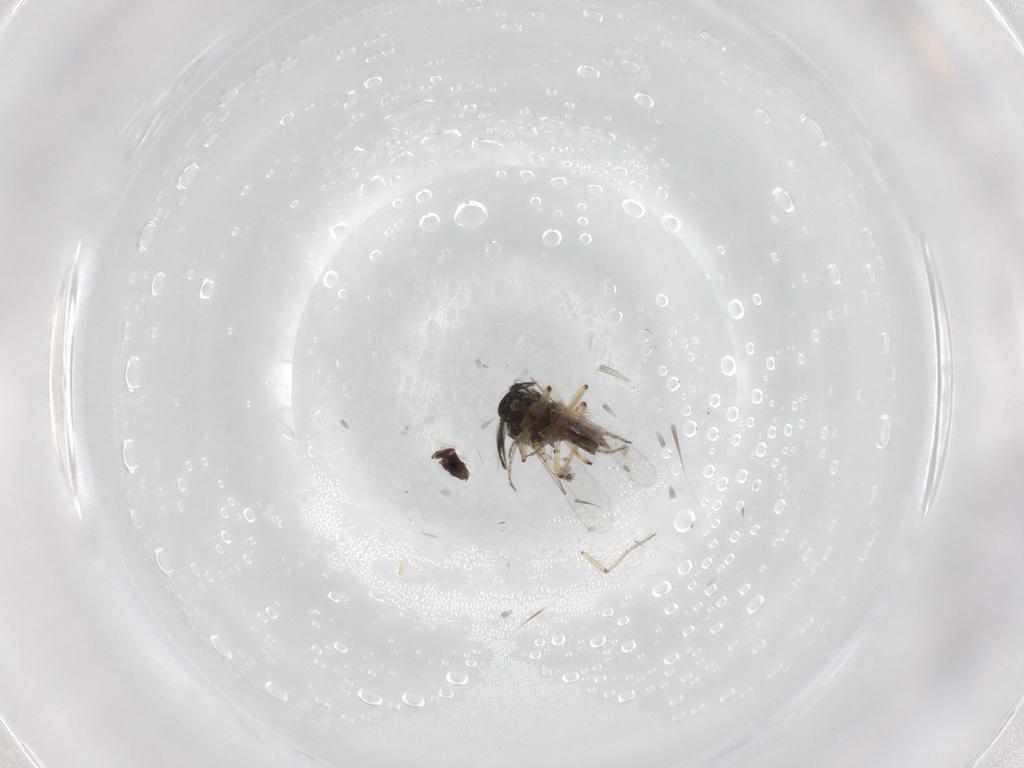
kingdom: Animalia
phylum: Arthropoda
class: Insecta
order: Diptera
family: Ceratopogonidae
